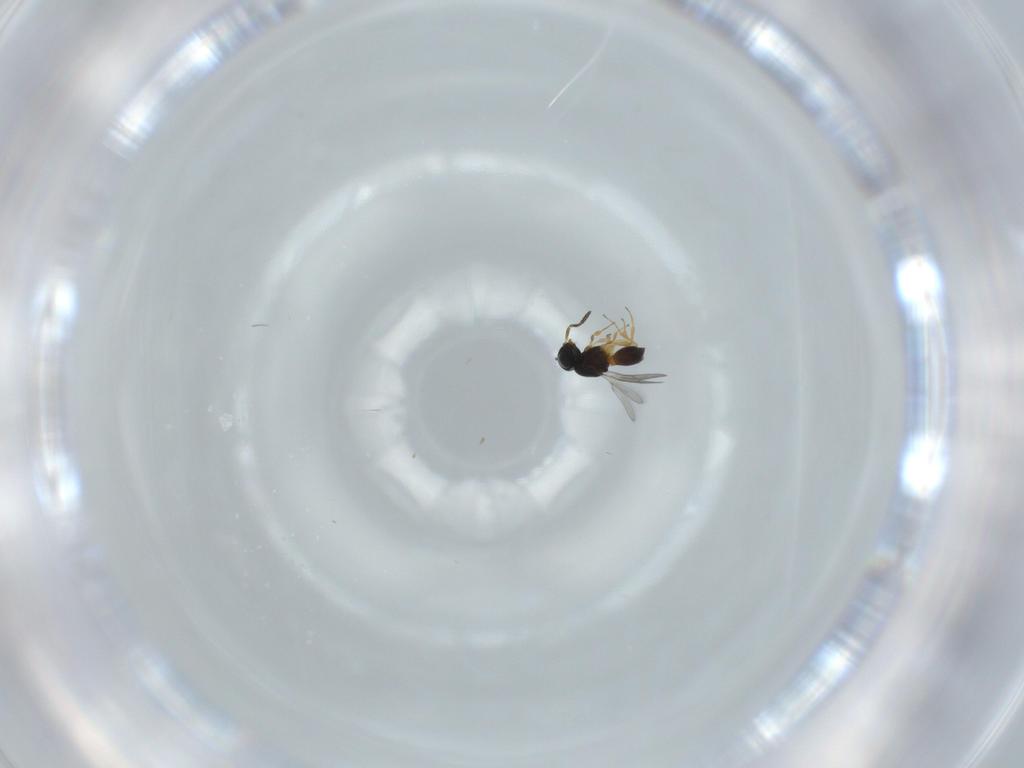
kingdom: Animalia
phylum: Arthropoda
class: Insecta
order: Hymenoptera
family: Scelionidae
